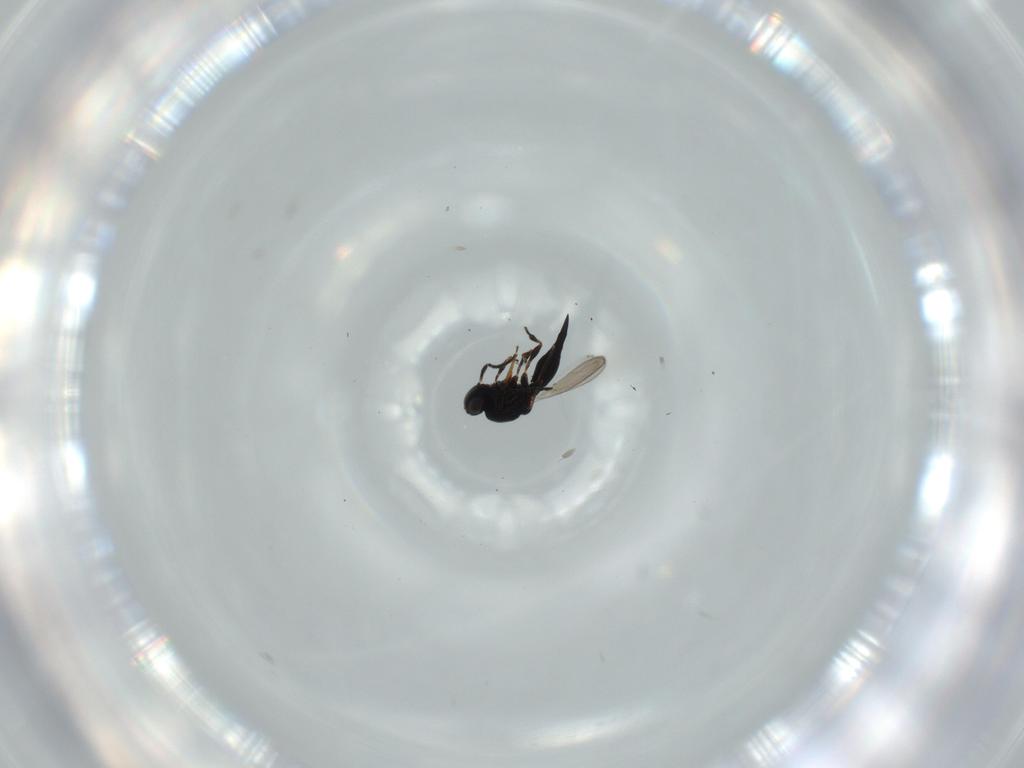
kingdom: Animalia
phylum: Arthropoda
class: Insecta
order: Hymenoptera
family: Platygastridae
